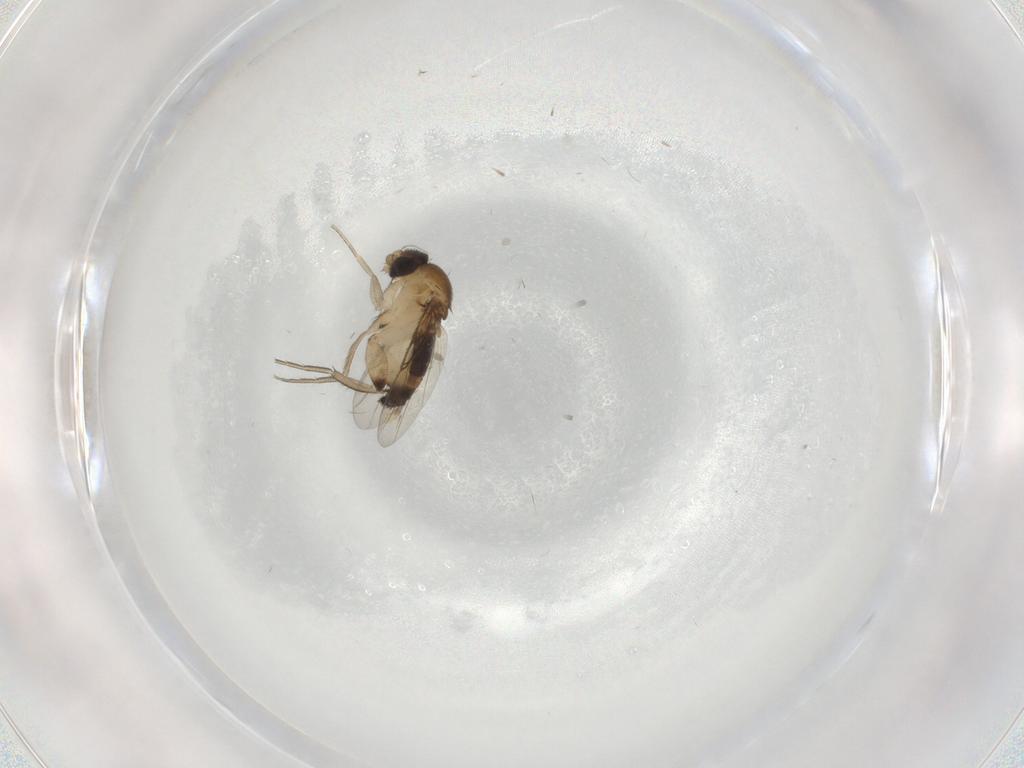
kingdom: Animalia
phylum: Arthropoda
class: Insecta
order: Diptera
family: Phoridae
